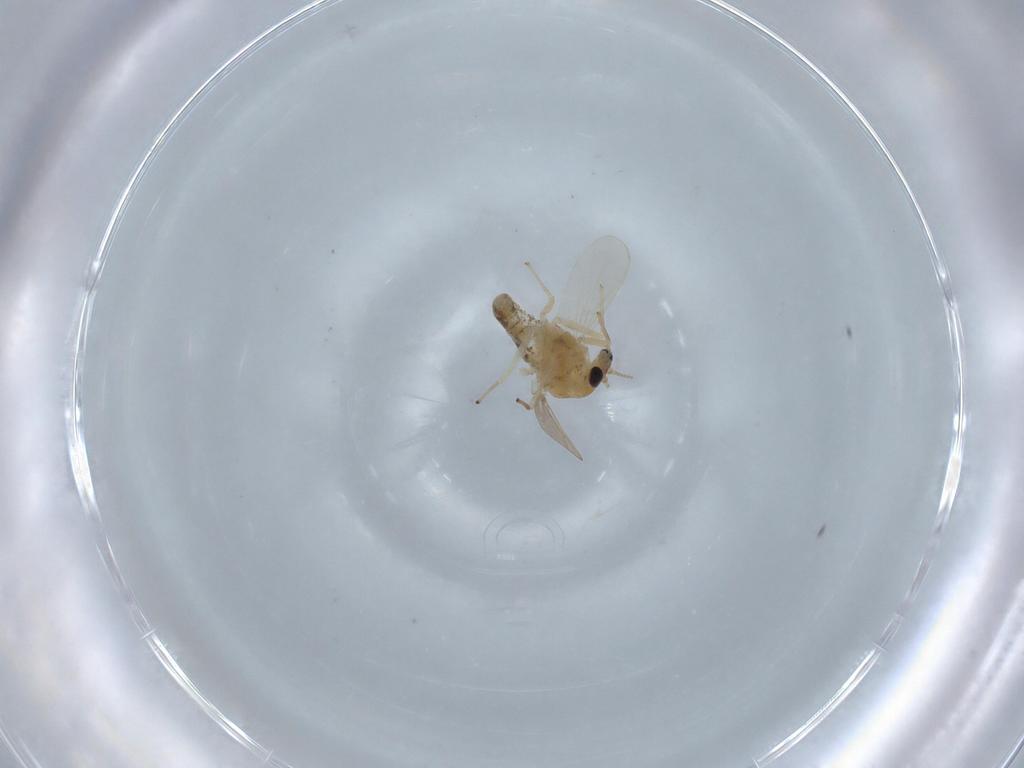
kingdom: Animalia
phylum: Arthropoda
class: Insecta
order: Diptera
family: Chironomidae
